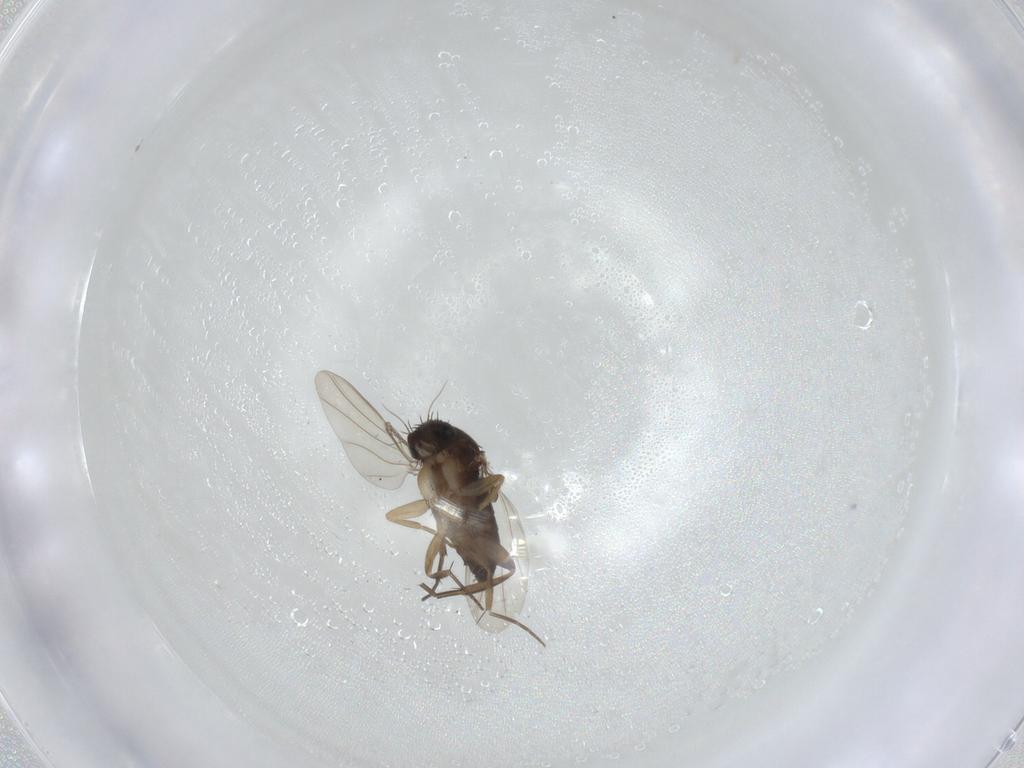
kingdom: Animalia
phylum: Arthropoda
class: Insecta
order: Diptera
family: Phoridae
